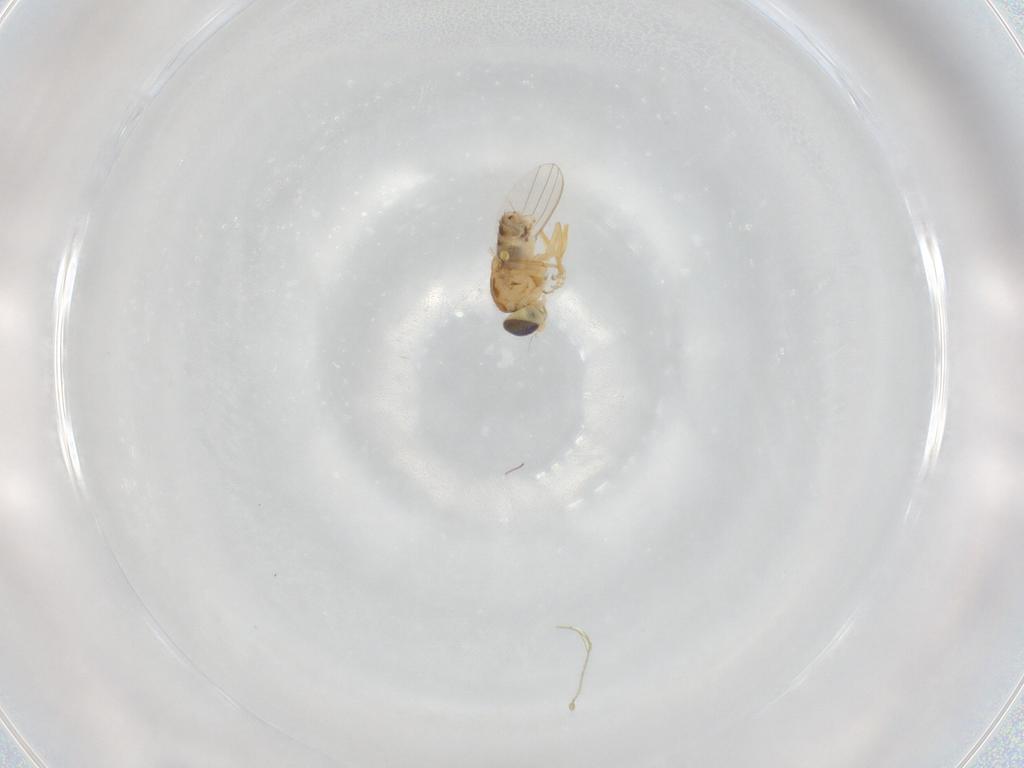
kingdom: Animalia
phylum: Arthropoda
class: Insecta
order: Diptera
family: Chyromyidae
